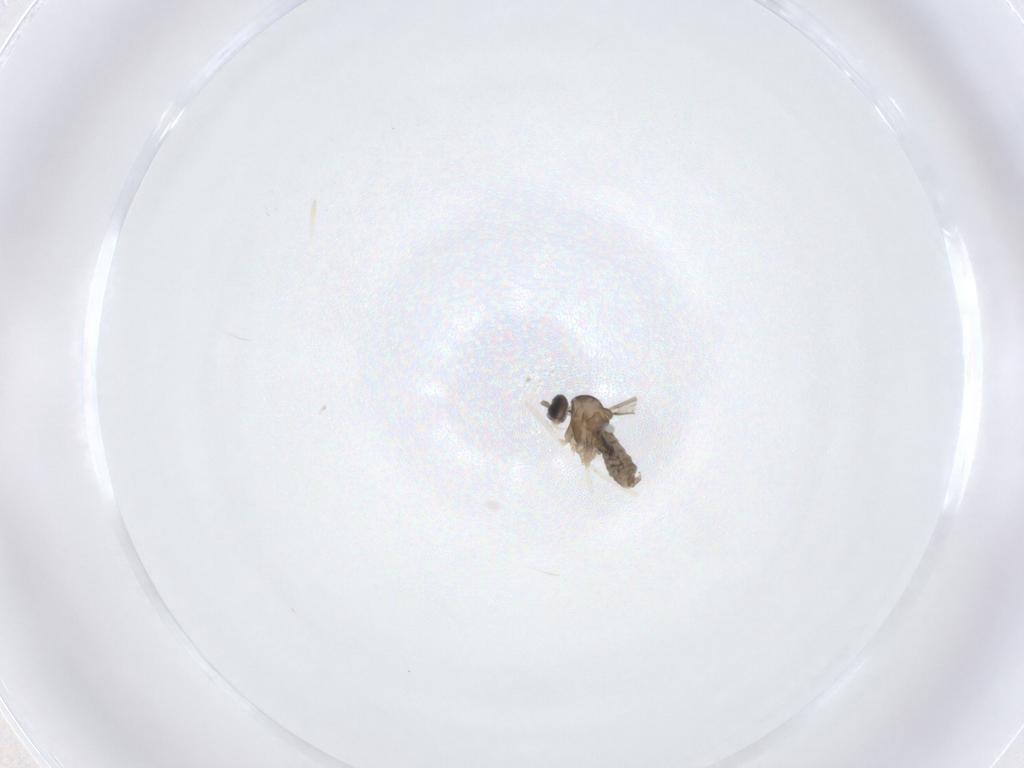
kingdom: Animalia
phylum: Arthropoda
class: Insecta
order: Diptera
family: Cecidomyiidae
